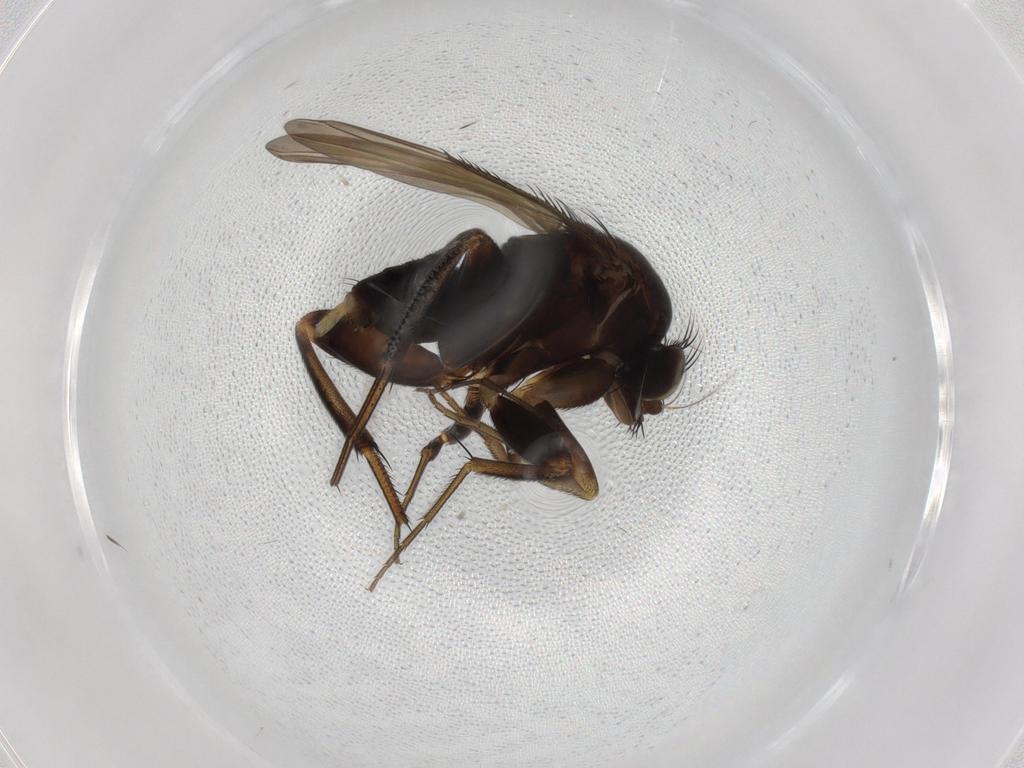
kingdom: Animalia
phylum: Arthropoda
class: Insecta
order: Diptera
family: Phoridae
